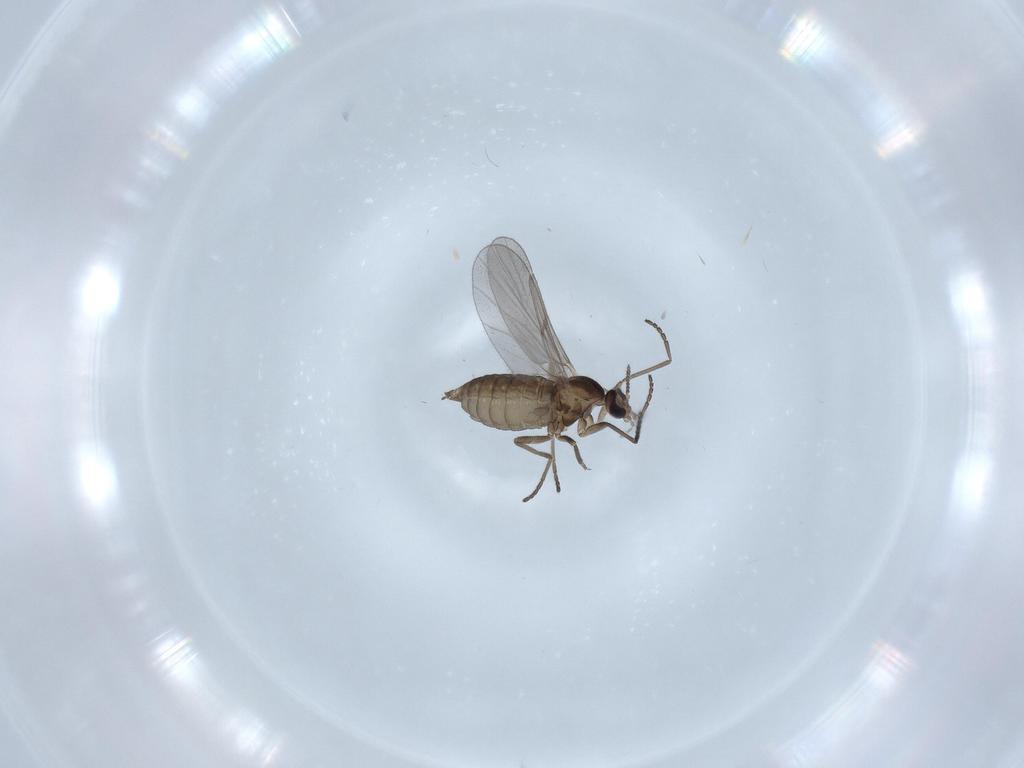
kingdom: Animalia
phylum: Arthropoda
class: Insecta
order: Diptera
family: Cecidomyiidae
